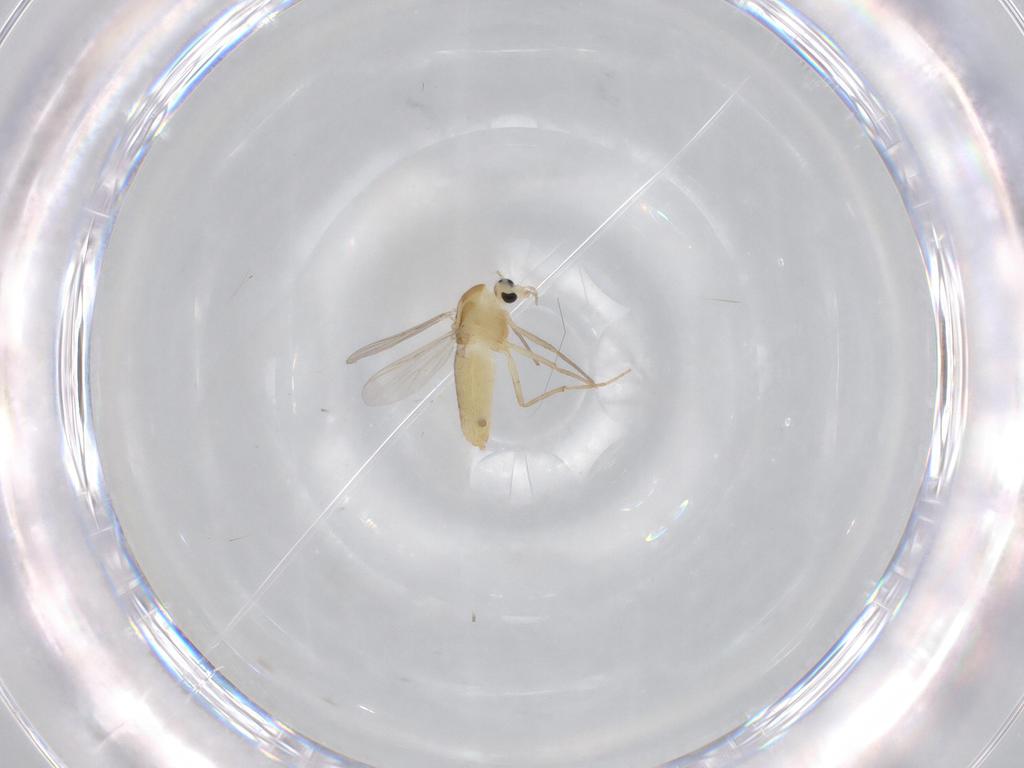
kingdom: Animalia
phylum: Arthropoda
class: Insecta
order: Diptera
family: Chironomidae
